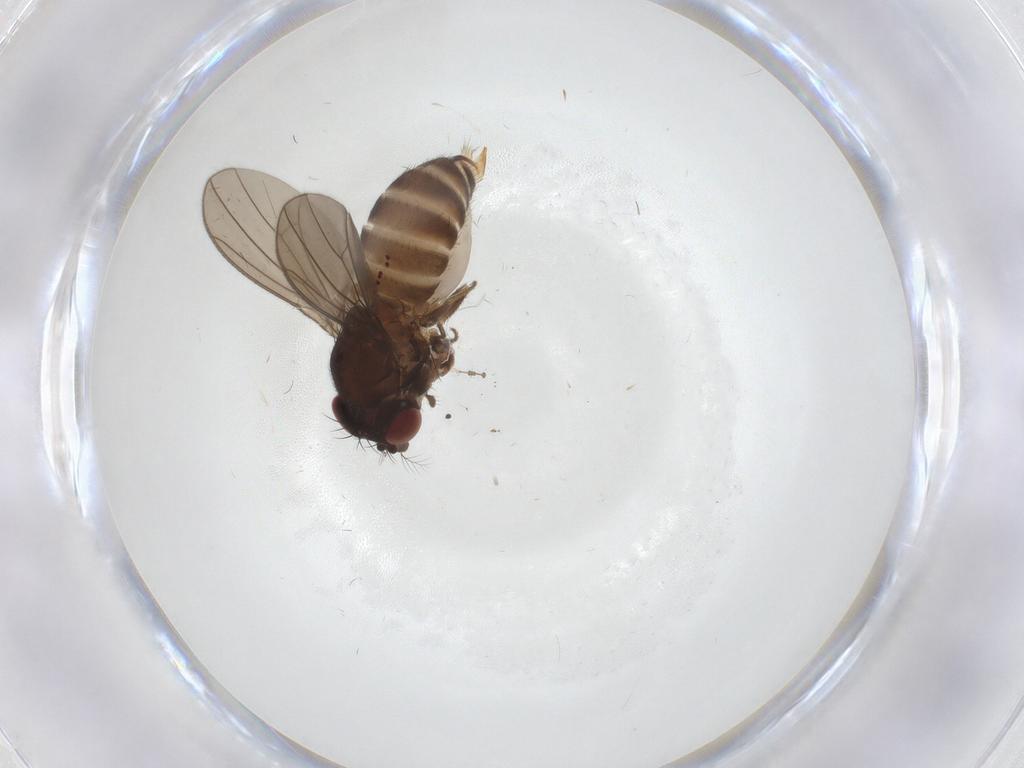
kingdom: Animalia
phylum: Arthropoda
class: Insecta
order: Diptera
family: Drosophilidae
